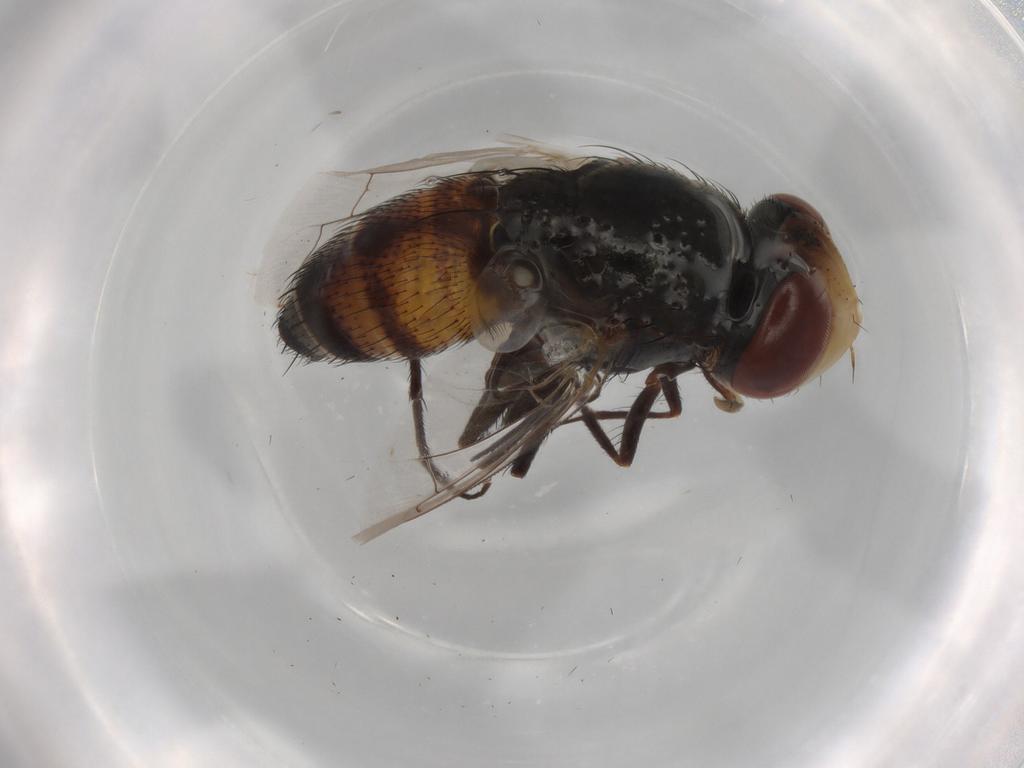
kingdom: Animalia
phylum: Arthropoda
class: Insecta
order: Diptera
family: Sarcophagidae
